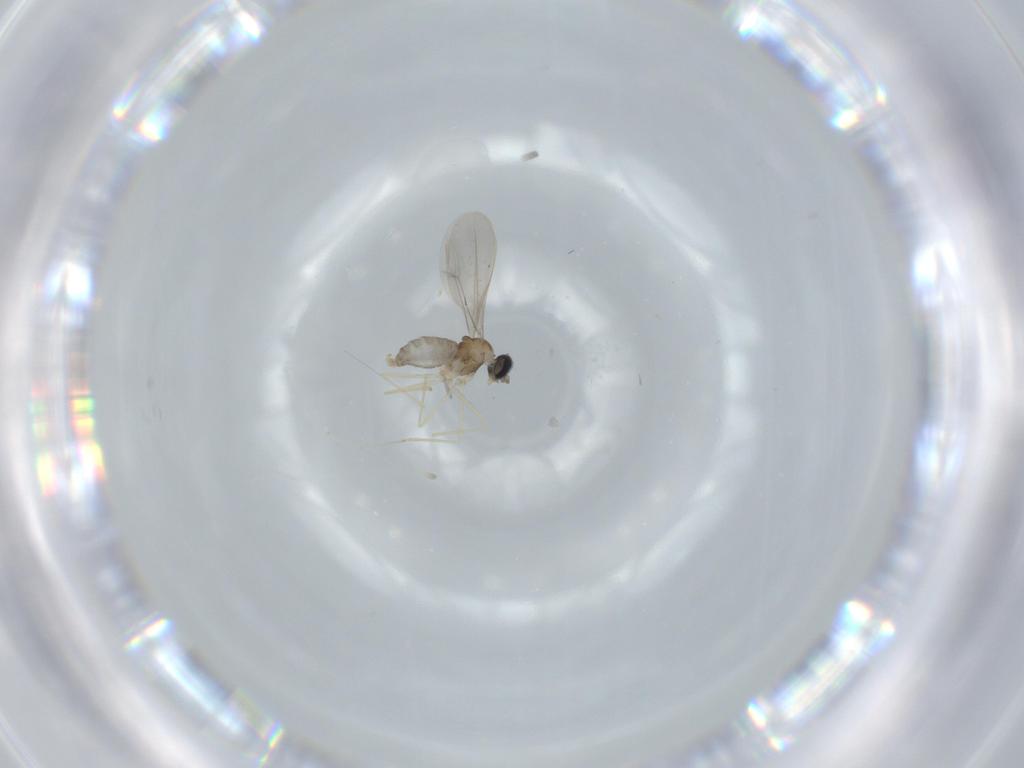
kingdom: Animalia
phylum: Arthropoda
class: Insecta
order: Diptera
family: Cecidomyiidae
